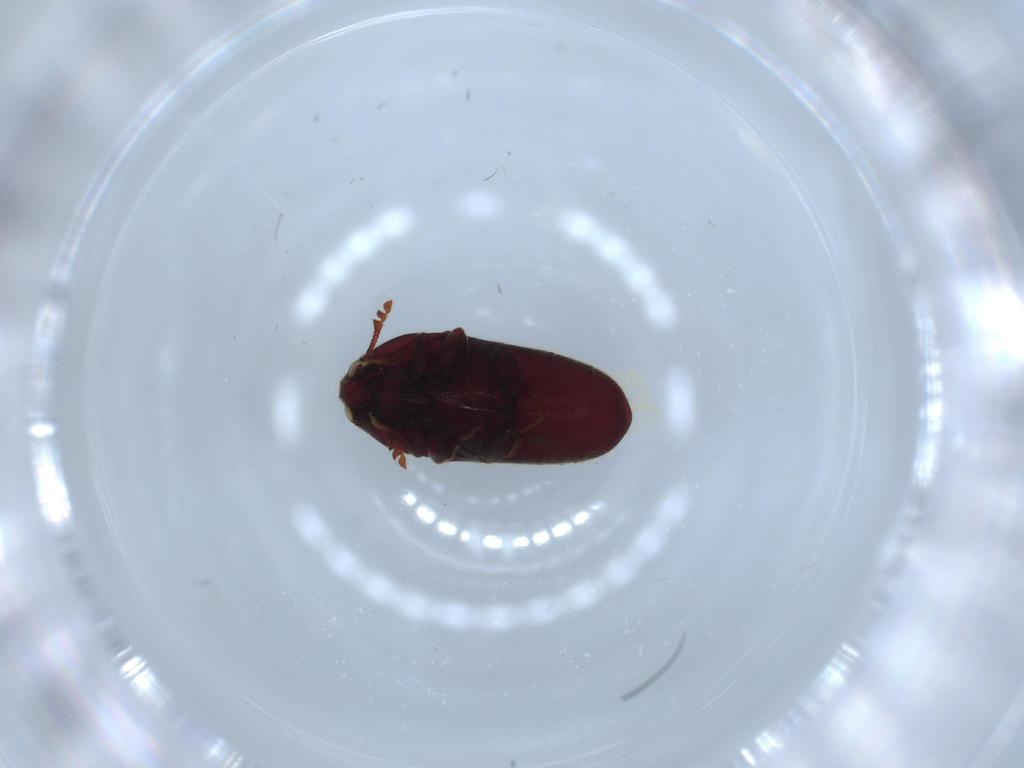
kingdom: Animalia
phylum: Arthropoda
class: Insecta
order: Coleoptera
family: Throscidae
